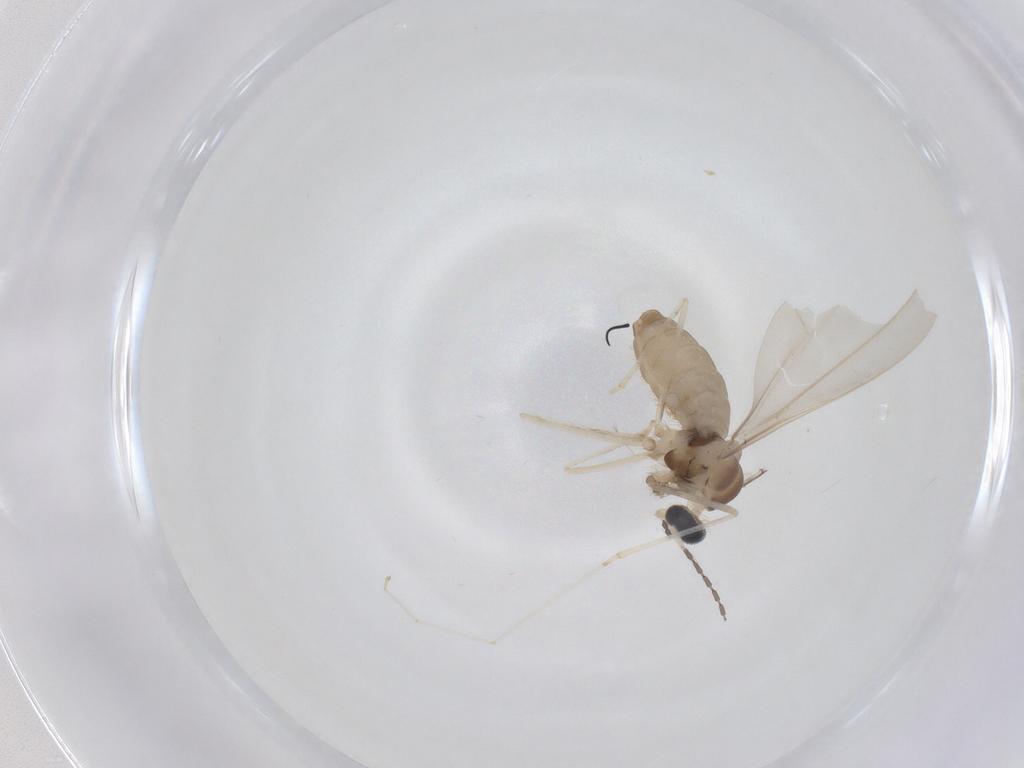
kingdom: Animalia
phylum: Arthropoda
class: Insecta
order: Diptera
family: Cecidomyiidae
